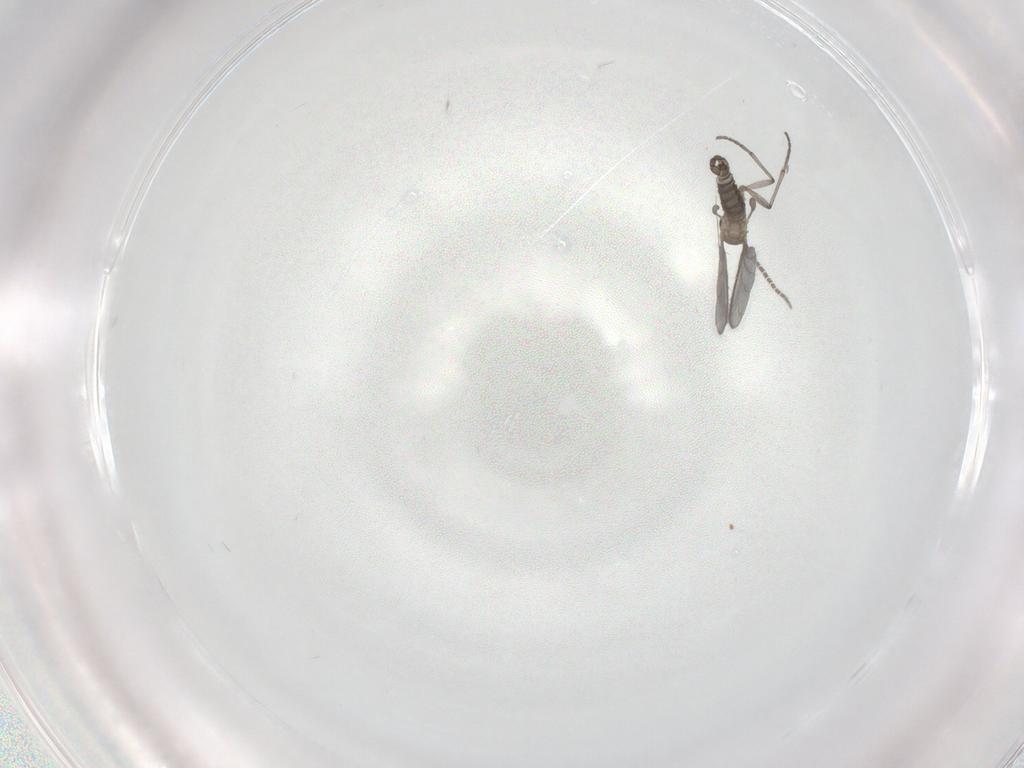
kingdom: Animalia
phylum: Arthropoda
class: Insecta
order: Diptera
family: Sciaridae
